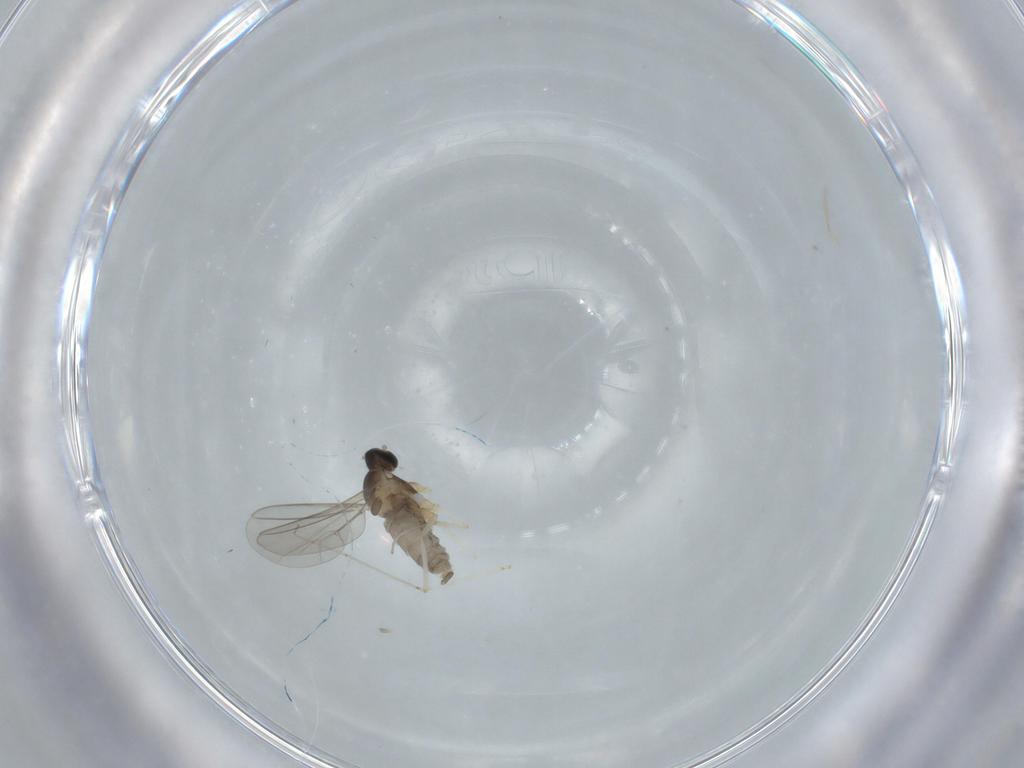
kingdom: Animalia
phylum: Arthropoda
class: Insecta
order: Diptera
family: Cecidomyiidae
